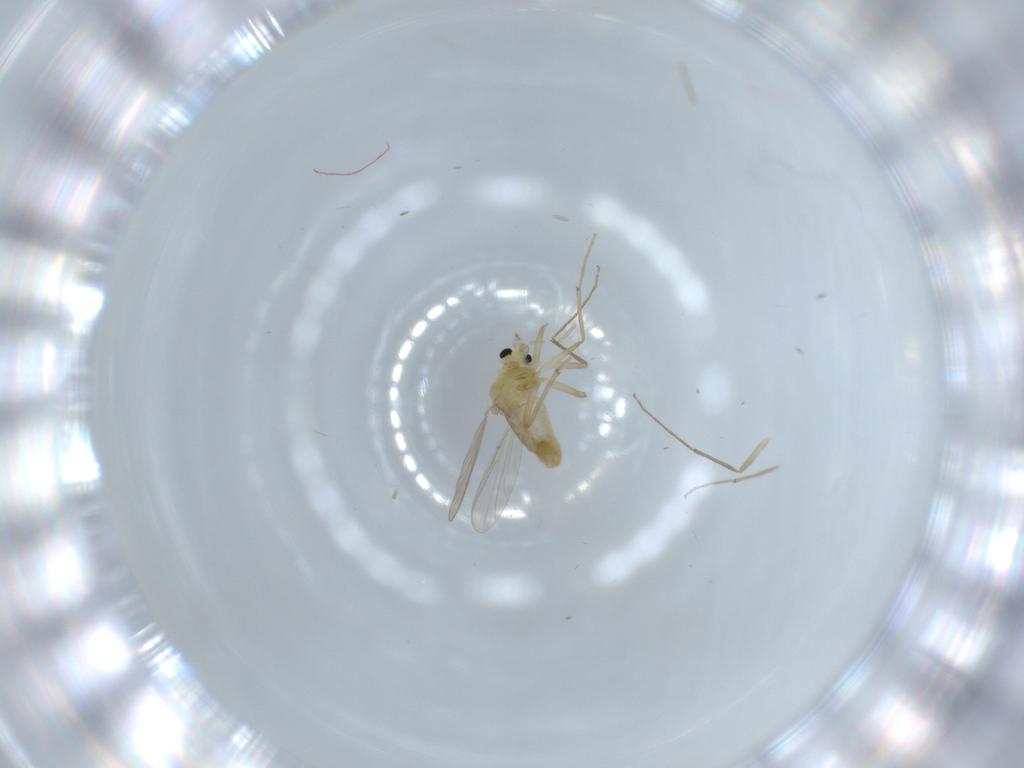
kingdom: Animalia
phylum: Arthropoda
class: Insecta
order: Diptera
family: Chironomidae
